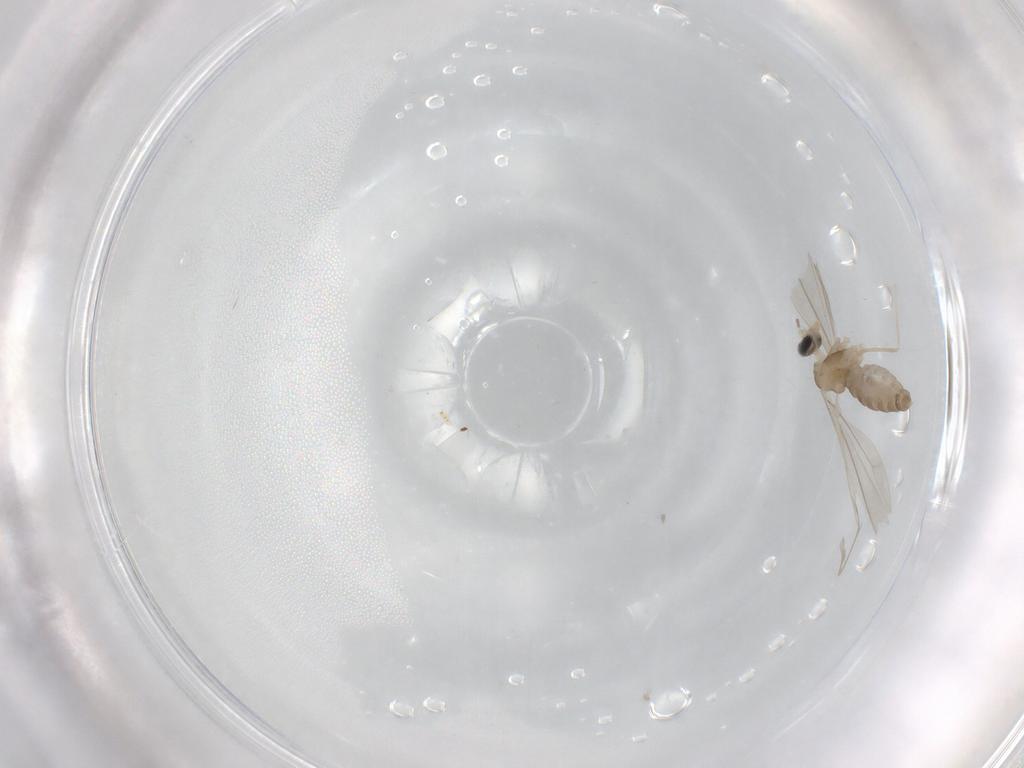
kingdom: Animalia
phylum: Arthropoda
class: Insecta
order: Diptera
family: Cecidomyiidae
